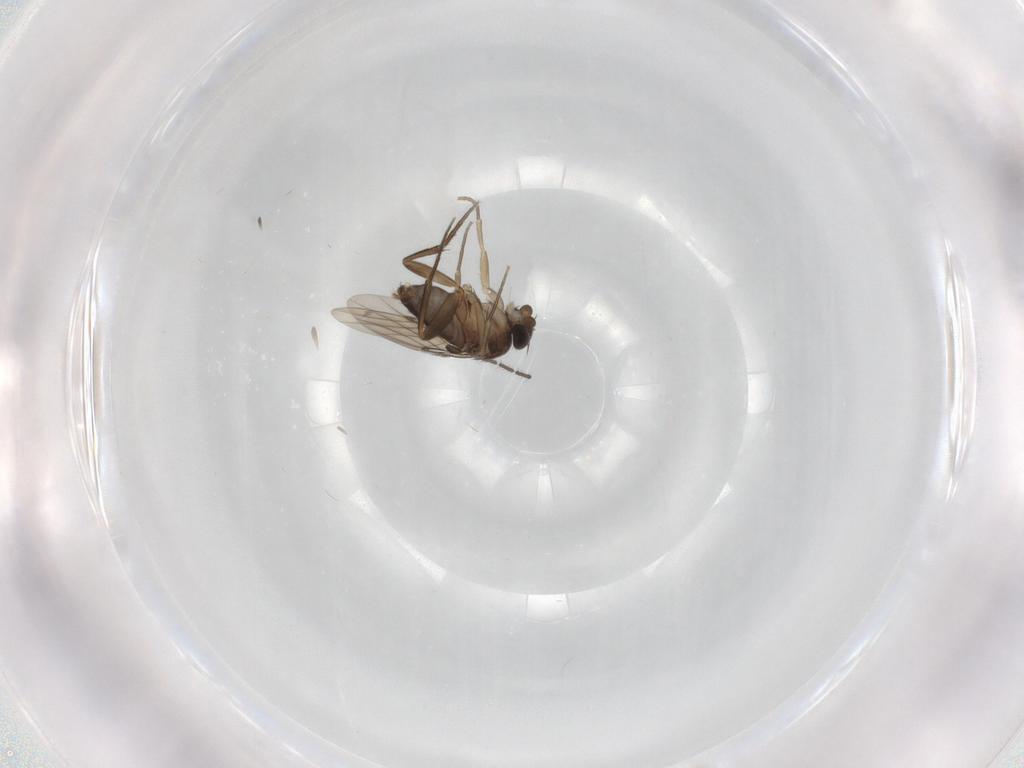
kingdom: Animalia
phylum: Arthropoda
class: Insecta
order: Diptera
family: Phoridae
